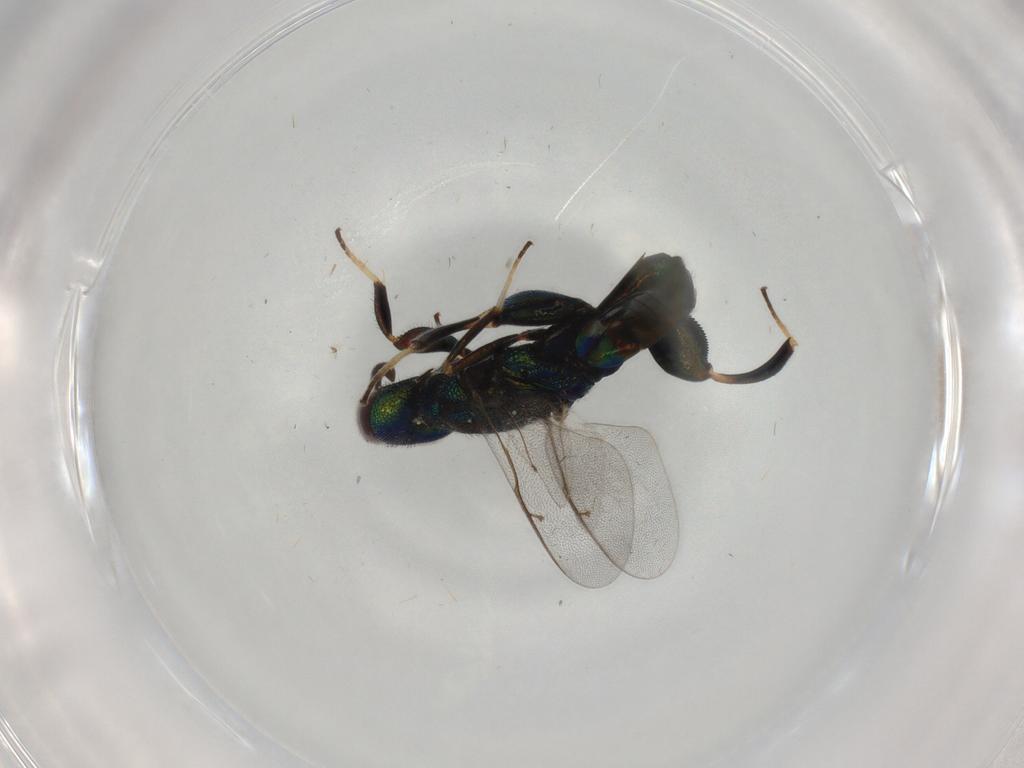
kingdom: Animalia
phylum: Arthropoda
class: Insecta
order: Hymenoptera
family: Pteromalidae
